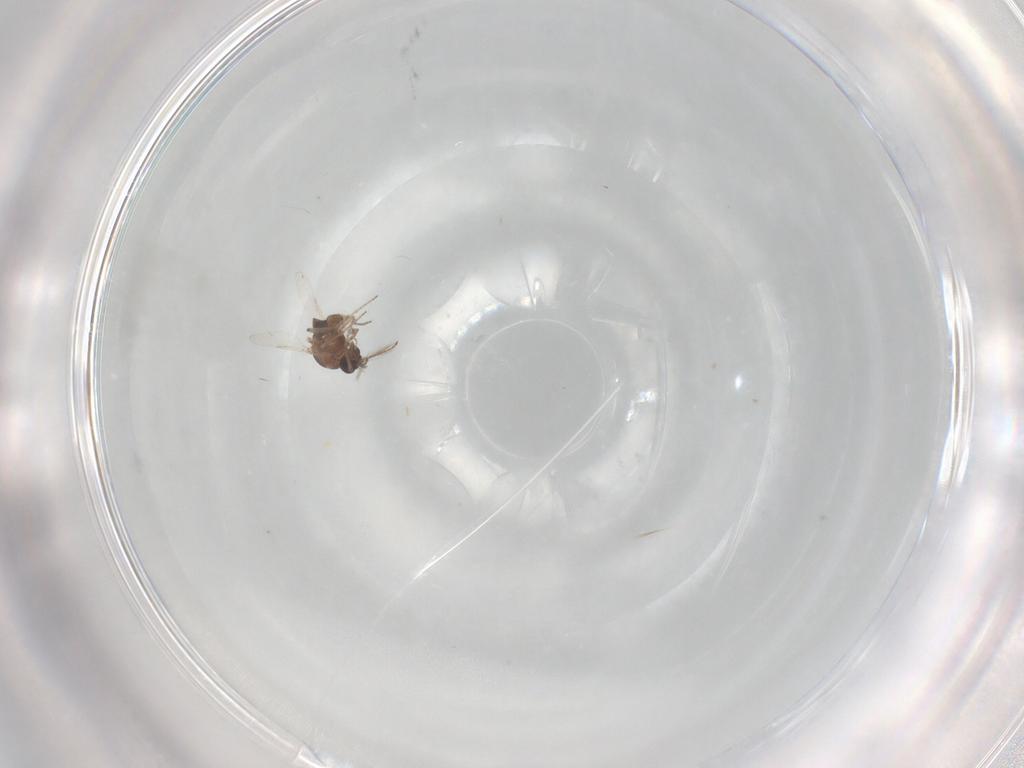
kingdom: Animalia
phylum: Arthropoda
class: Insecta
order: Diptera
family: Ceratopogonidae
